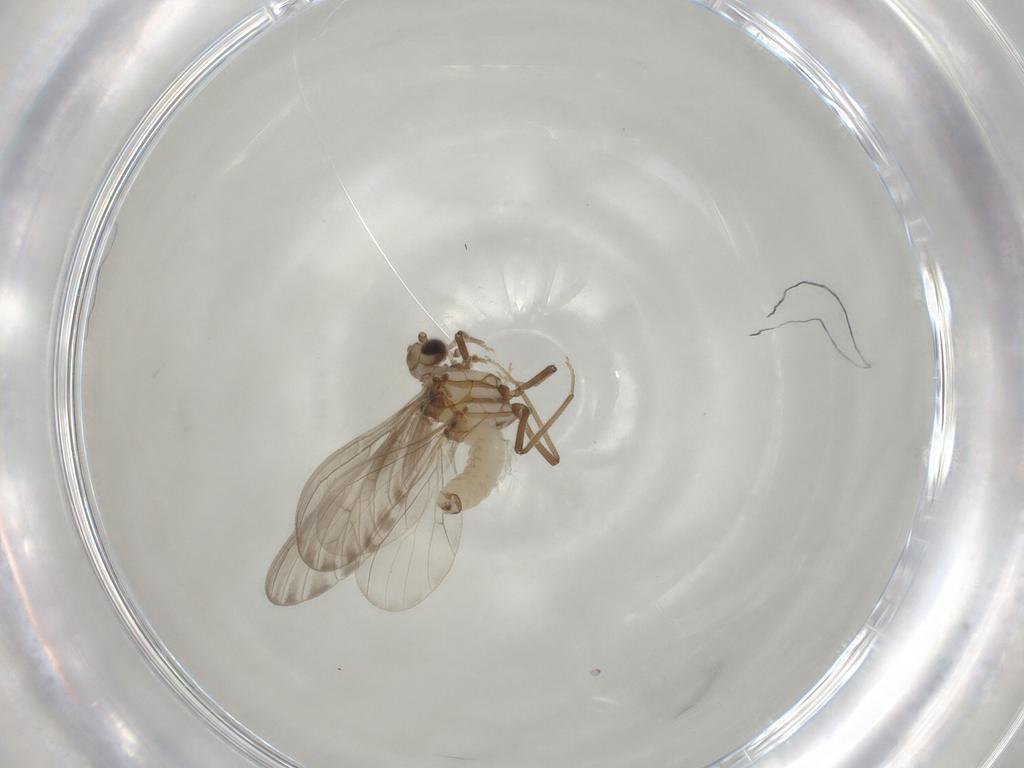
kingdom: Animalia
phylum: Arthropoda
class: Insecta
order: Neuroptera
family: Coniopterygidae
